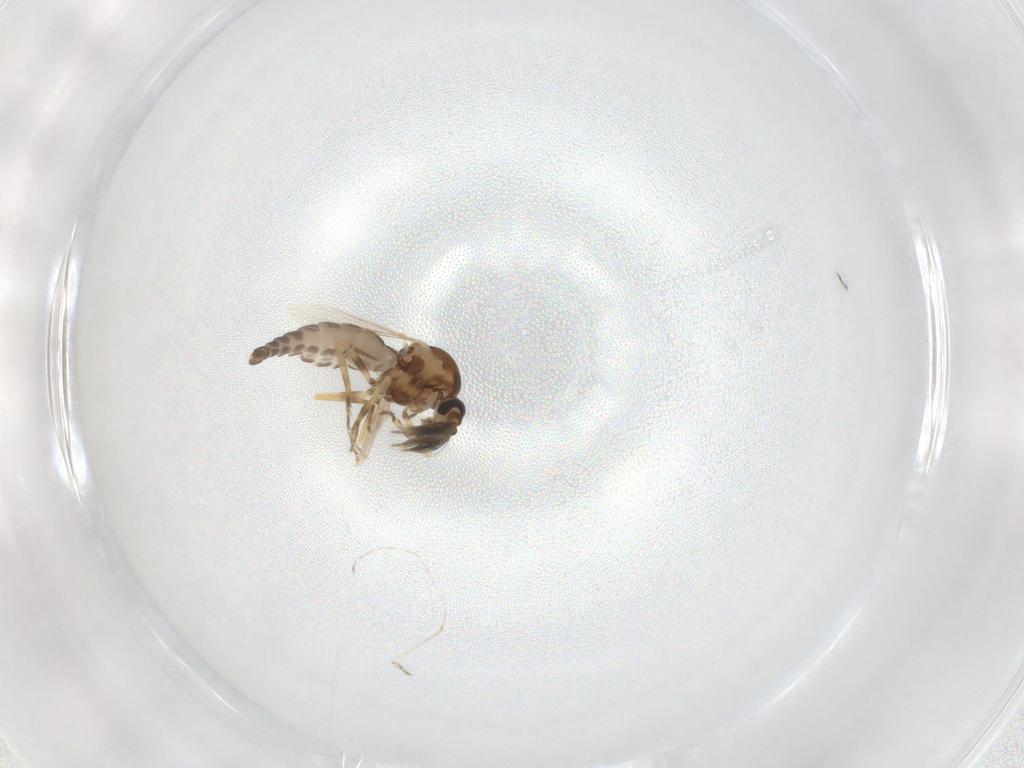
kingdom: Animalia
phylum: Arthropoda
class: Insecta
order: Diptera
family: Ceratopogonidae
